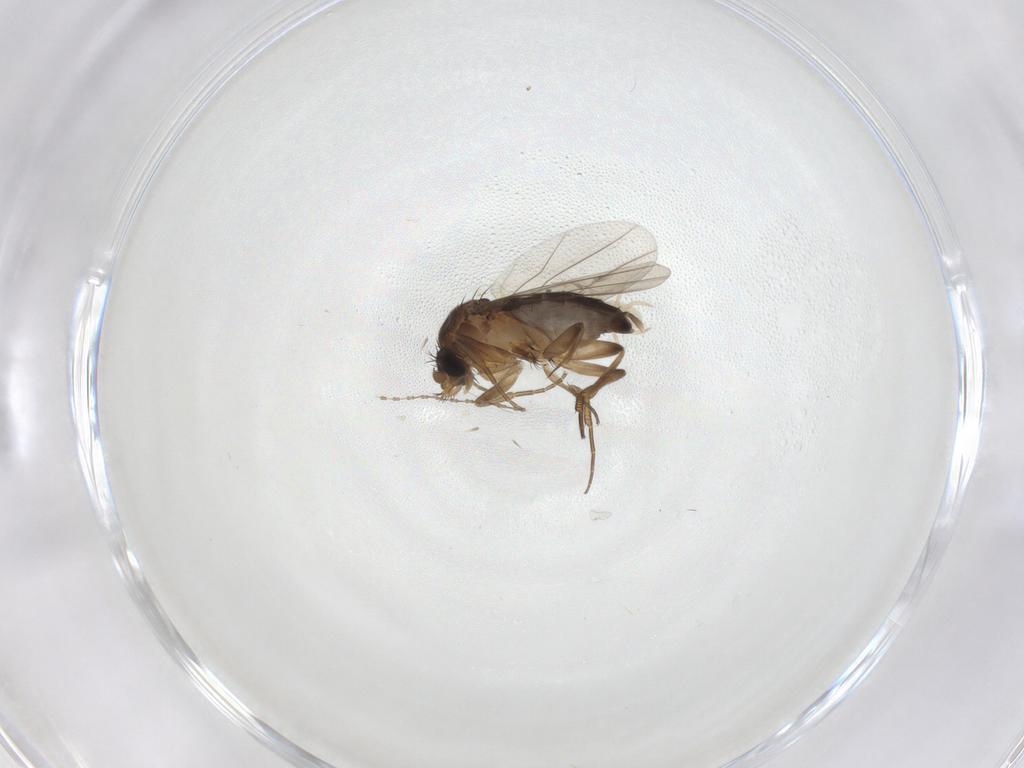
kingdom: Animalia
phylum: Arthropoda
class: Insecta
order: Diptera
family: Phoridae
